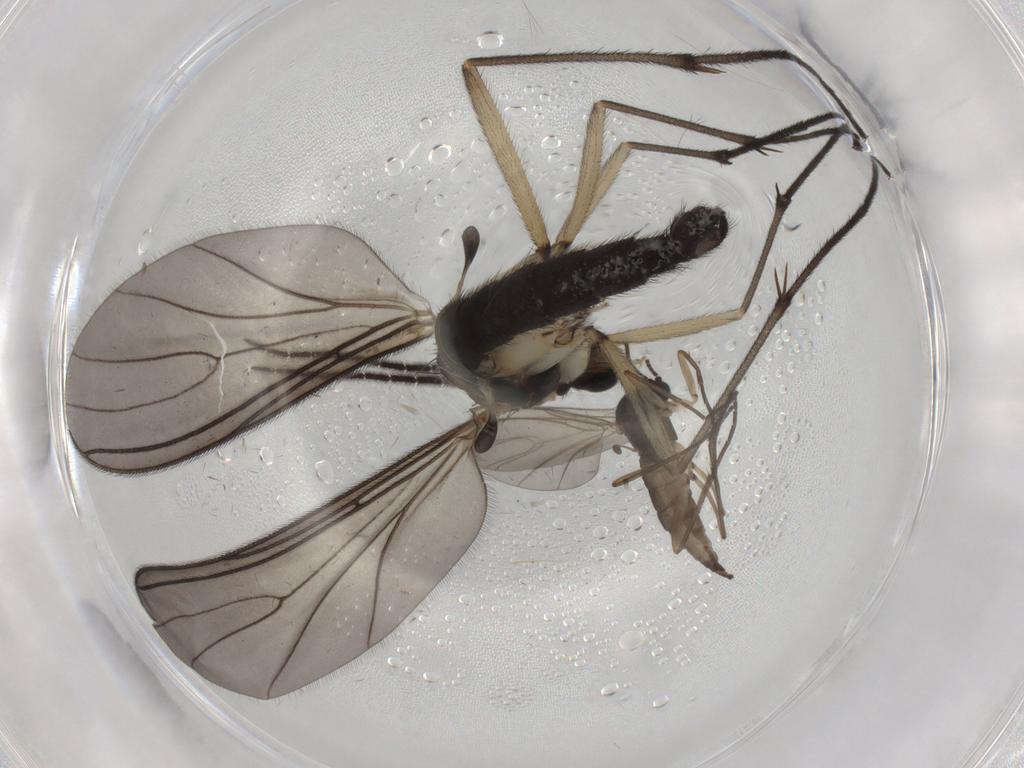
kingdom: Animalia
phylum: Arthropoda
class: Insecta
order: Diptera
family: Sciaridae
